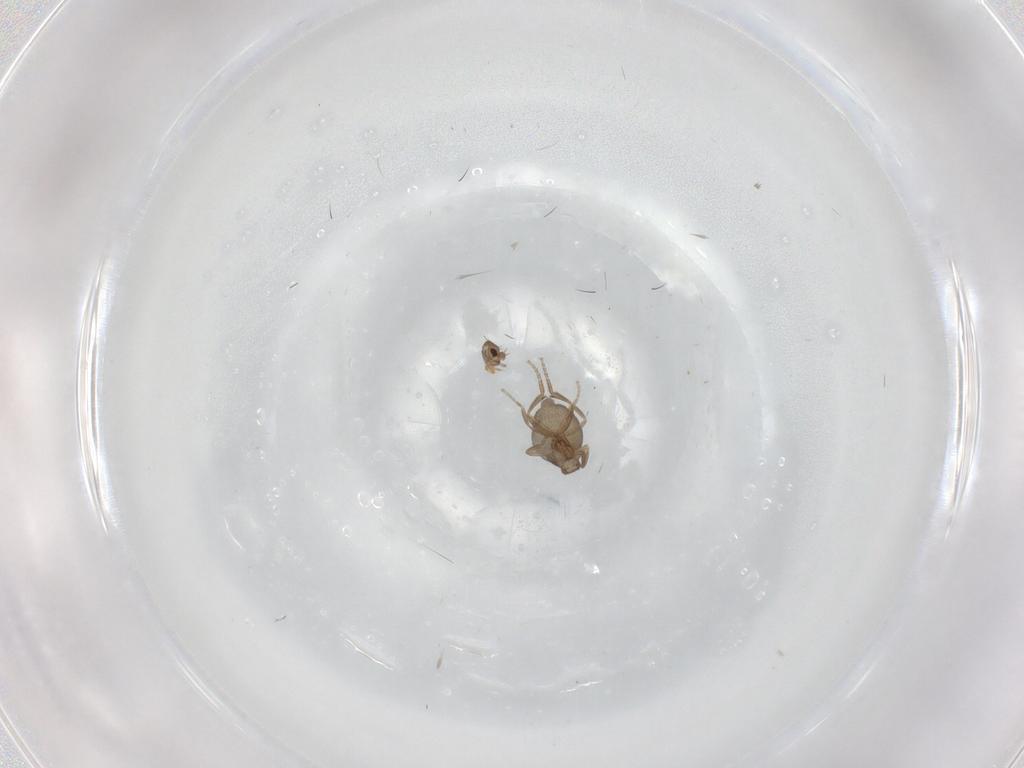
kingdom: Animalia
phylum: Arthropoda
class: Insecta
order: Diptera
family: Phoridae
